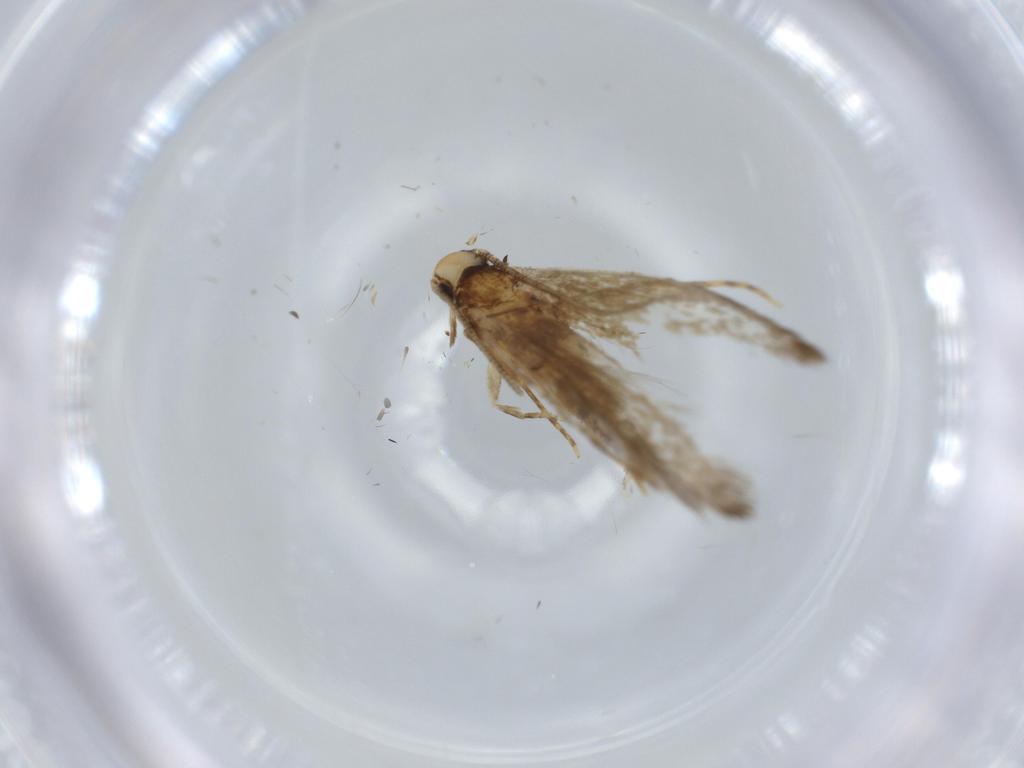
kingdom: Animalia
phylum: Arthropoda
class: Insecta
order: Lepidoptera
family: Tineidae
